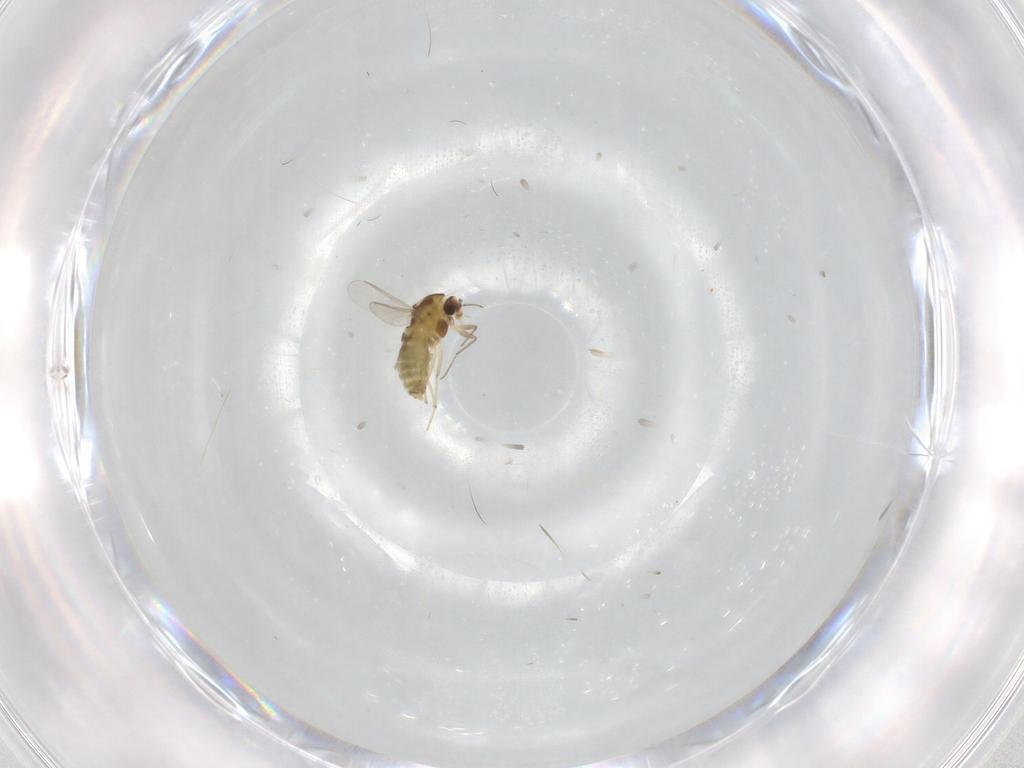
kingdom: Animalia
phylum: Arthropoda
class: Insecta
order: Diptera
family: Chironomidae
